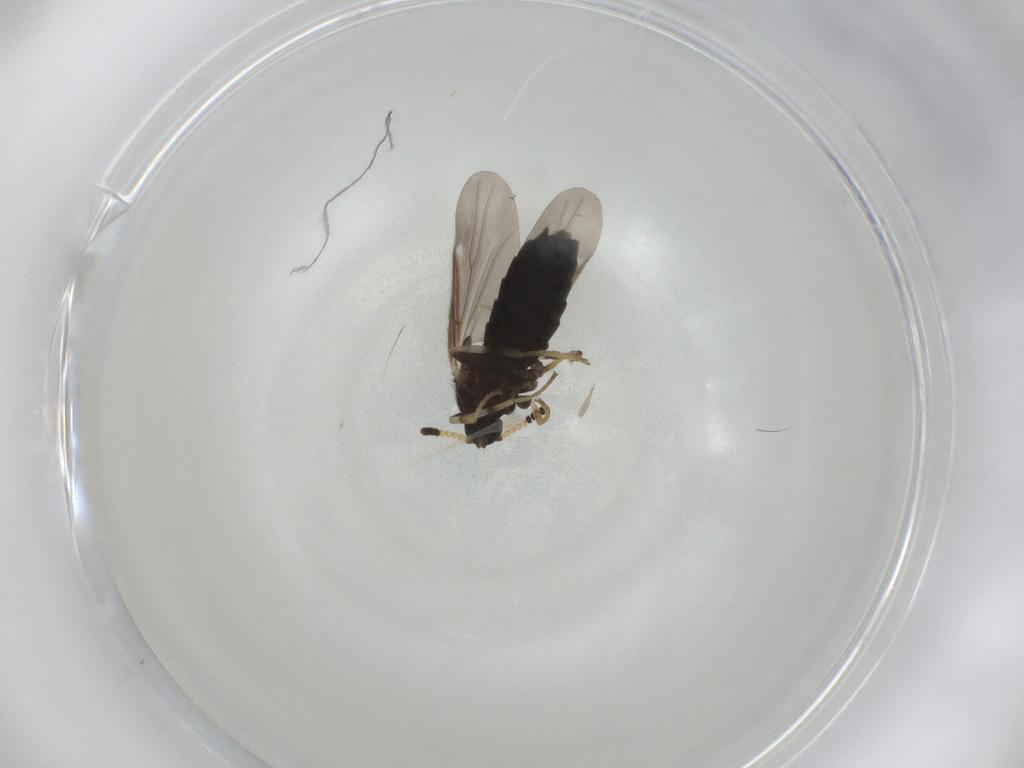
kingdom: Animalia
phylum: Arthropoda
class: Insecta
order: Diptera
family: Scatopsidae
